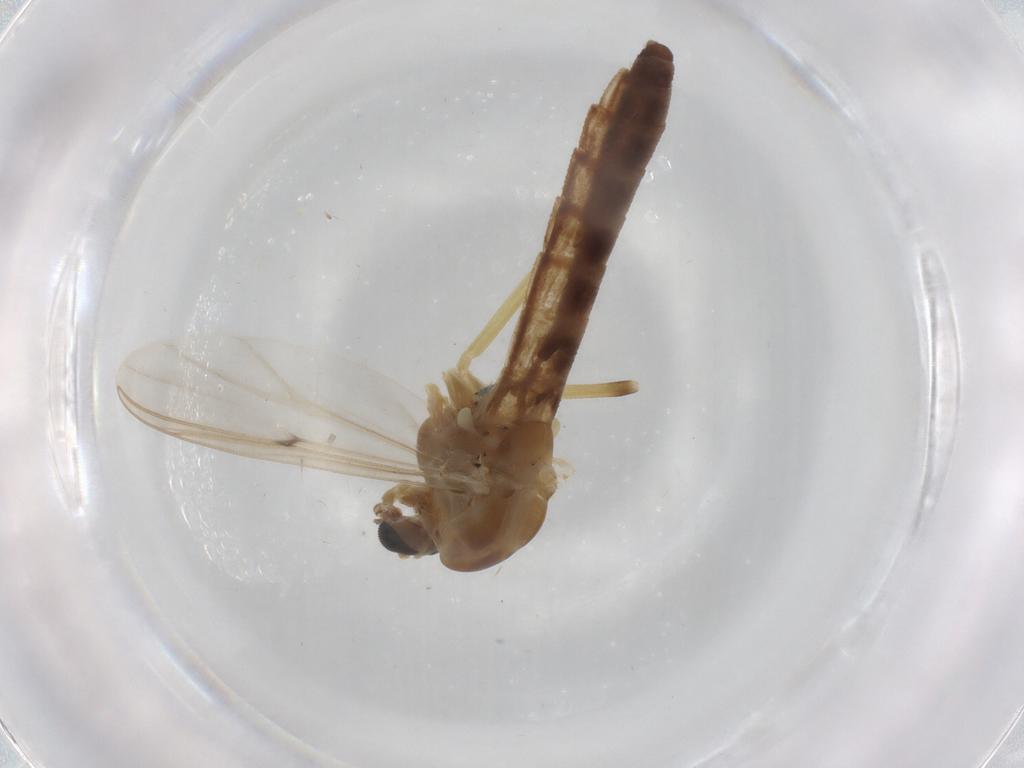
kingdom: Animalia
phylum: Arthropoda
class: Insecta
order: Diptera
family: Chironomidae
